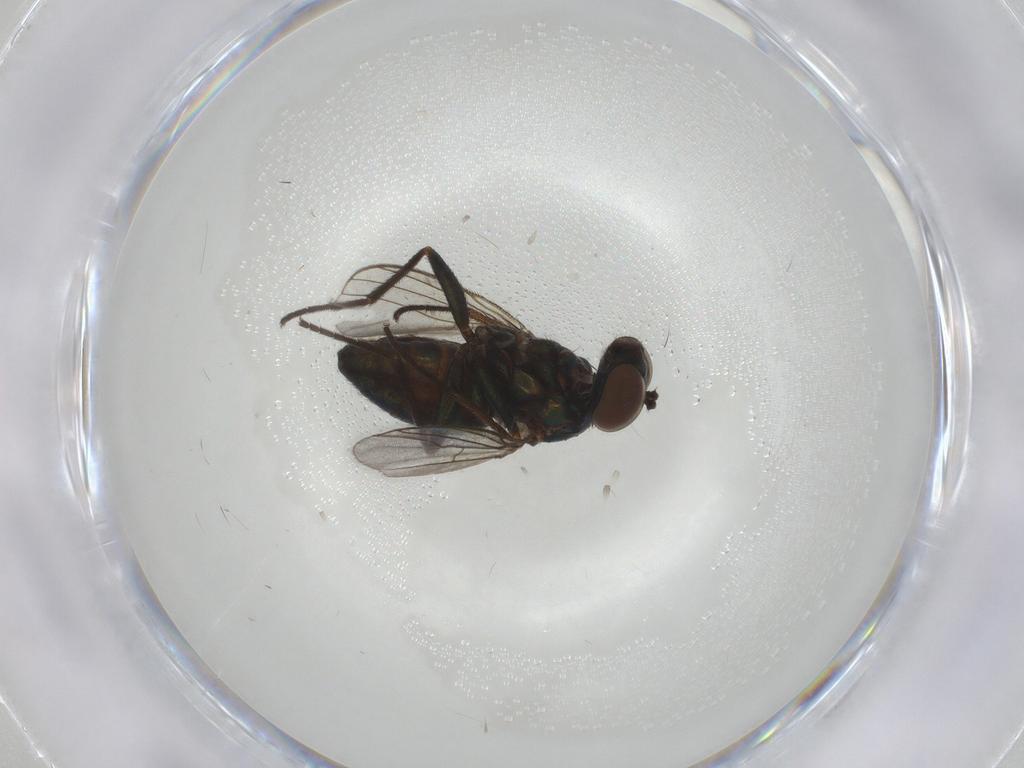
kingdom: Animalia
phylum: Arthropoda
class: Insecta
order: Diptera
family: Dolichopodidae
